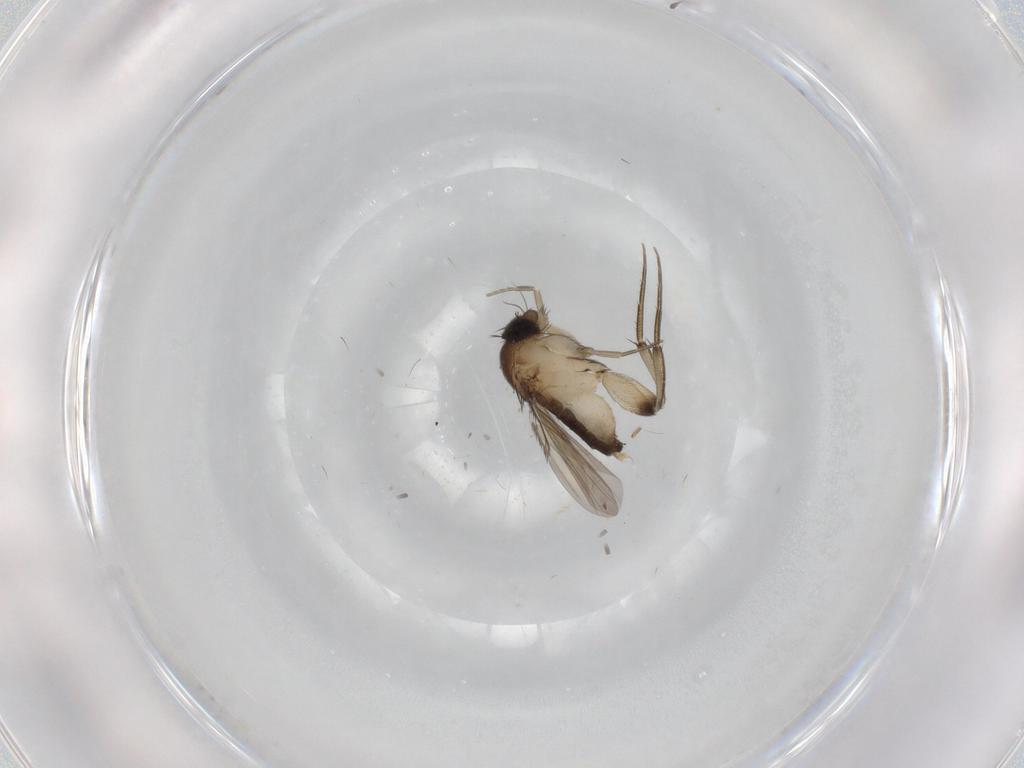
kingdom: Animalia
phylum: Arthropoda
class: Insecta
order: Diptera
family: Phoridae
